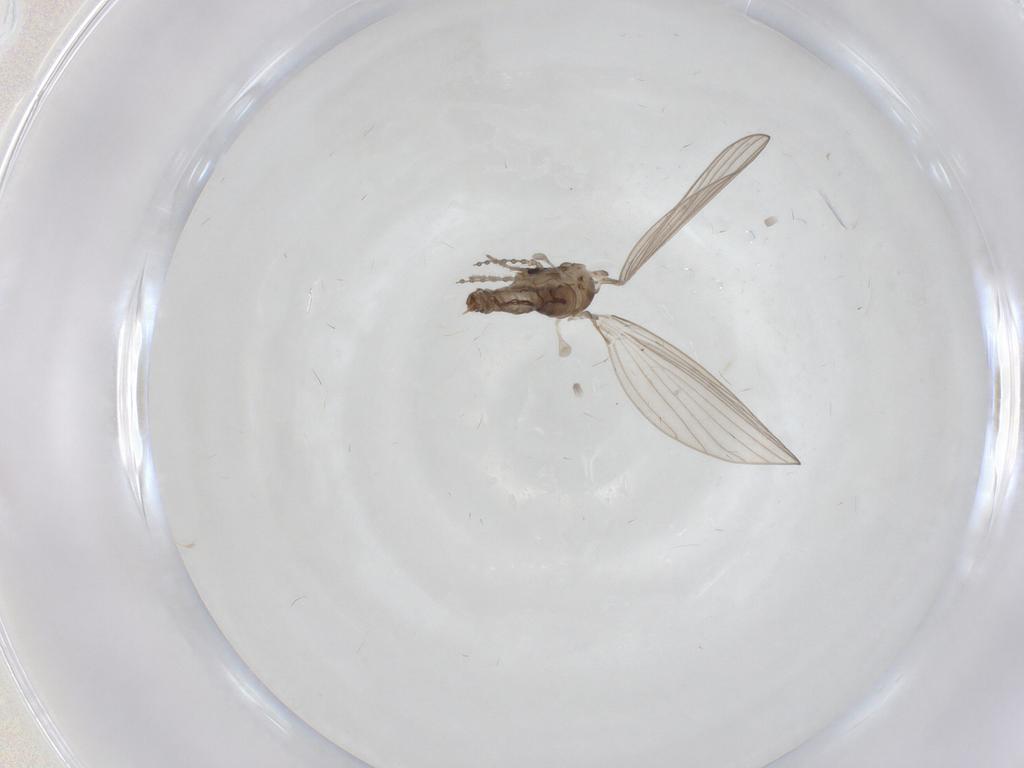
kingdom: Animalia
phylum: Arthropoda
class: Insecta
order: Diptera
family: Psychodidae
